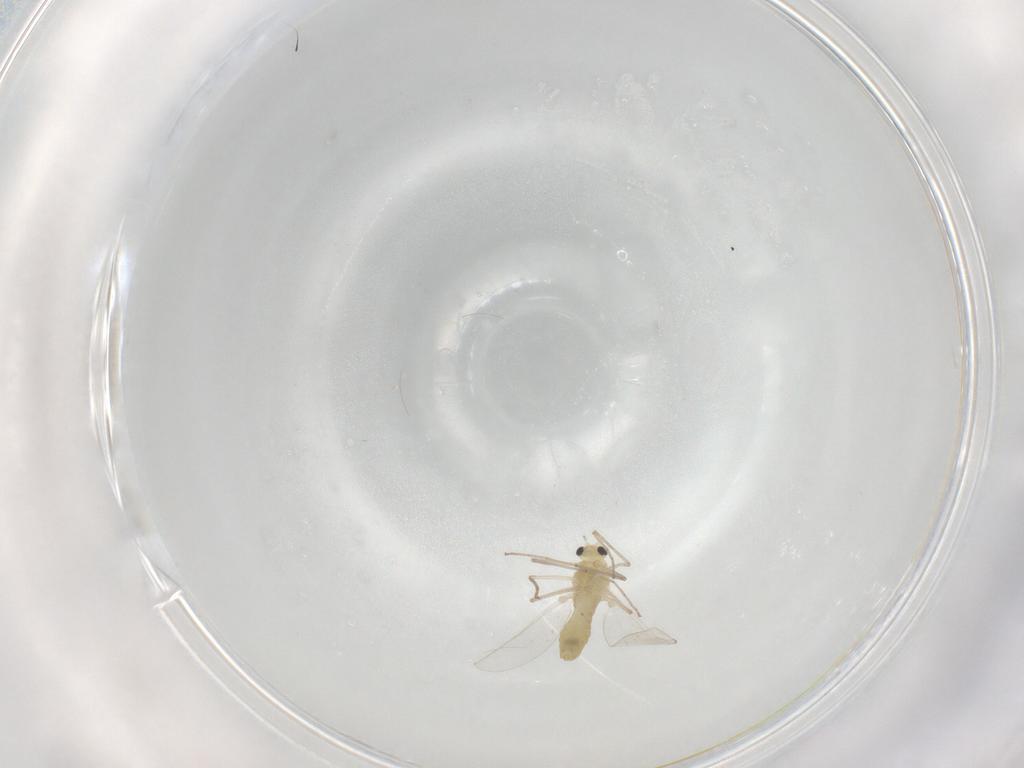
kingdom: Animalia
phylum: Arthropoda
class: Insecta
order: Diptera
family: Chironomidae
